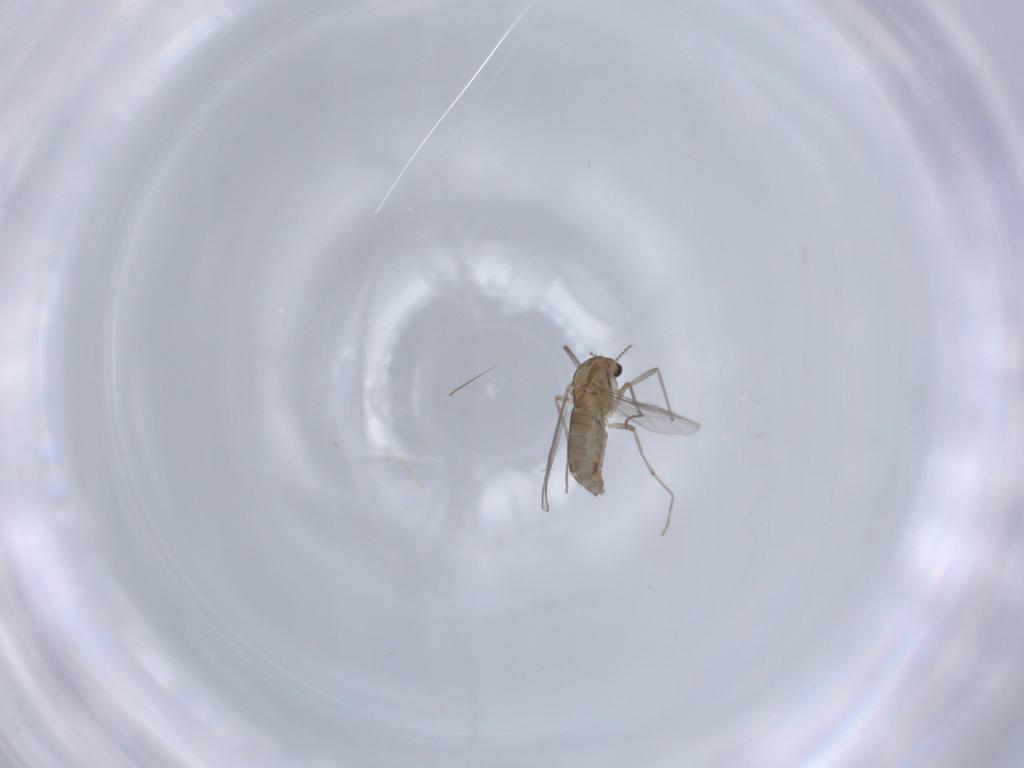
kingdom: Animalia
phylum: Arthropoda
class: Insecta
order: Diptera
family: Chironomidae
